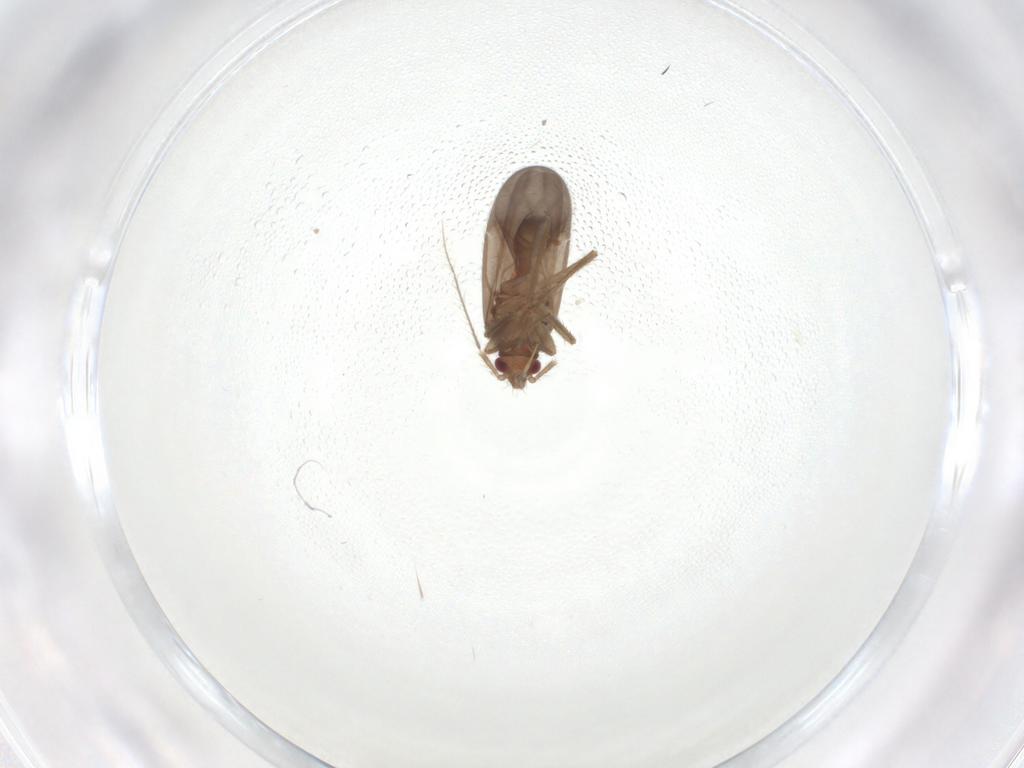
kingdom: Animalia
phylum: Arthropoda
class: Insecta
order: Hemiptera
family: Ceratocombidae
